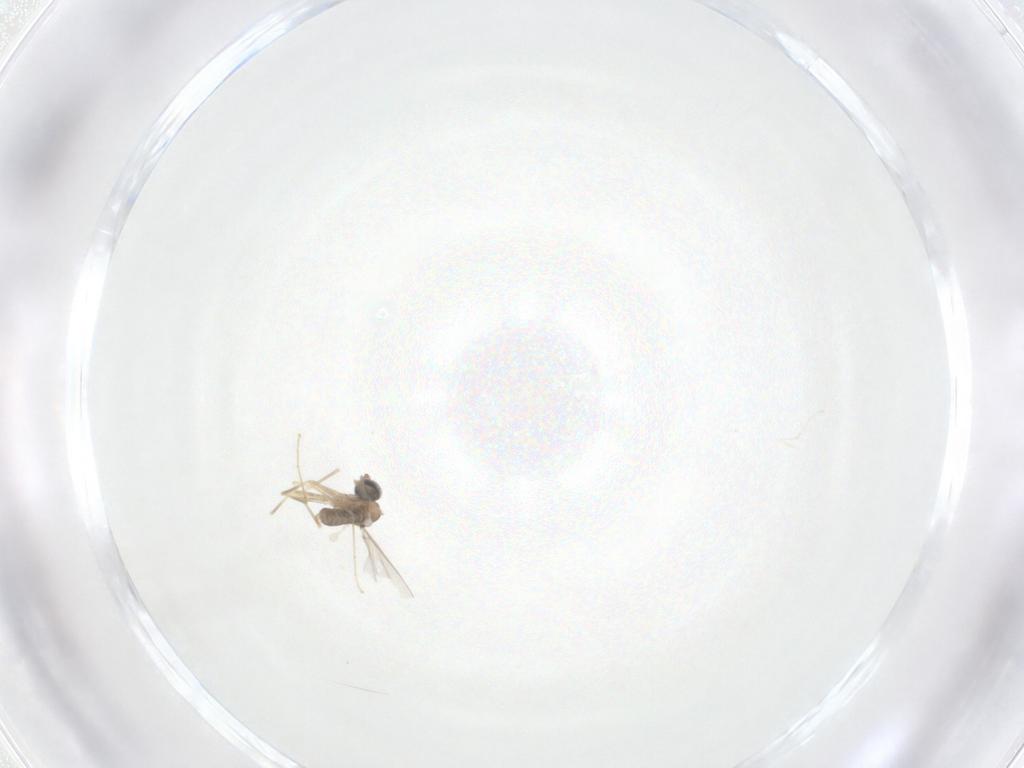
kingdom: Animalia
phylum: Arthropoda
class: Insecta
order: Diptera
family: Cecidomyiidae
